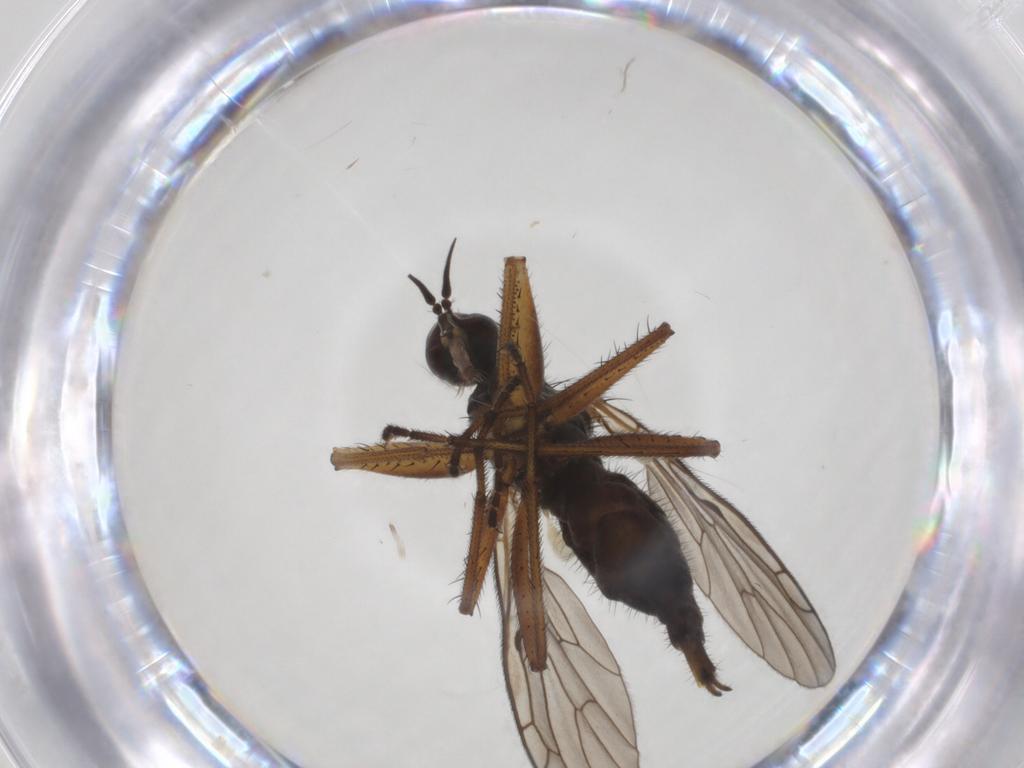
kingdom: Animalia
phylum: Arthropoda
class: Insecta
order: Diptera
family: Empididae
